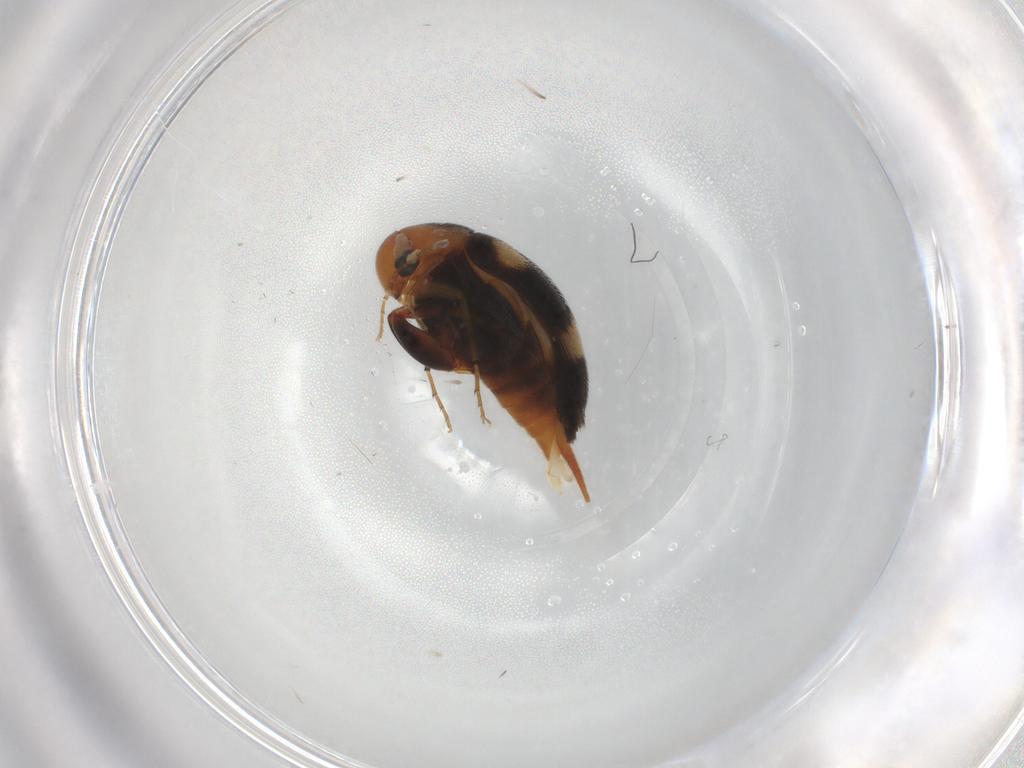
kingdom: Animalia
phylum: Arthropoda
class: Insecta
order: Coleoptera
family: Mordellidae
